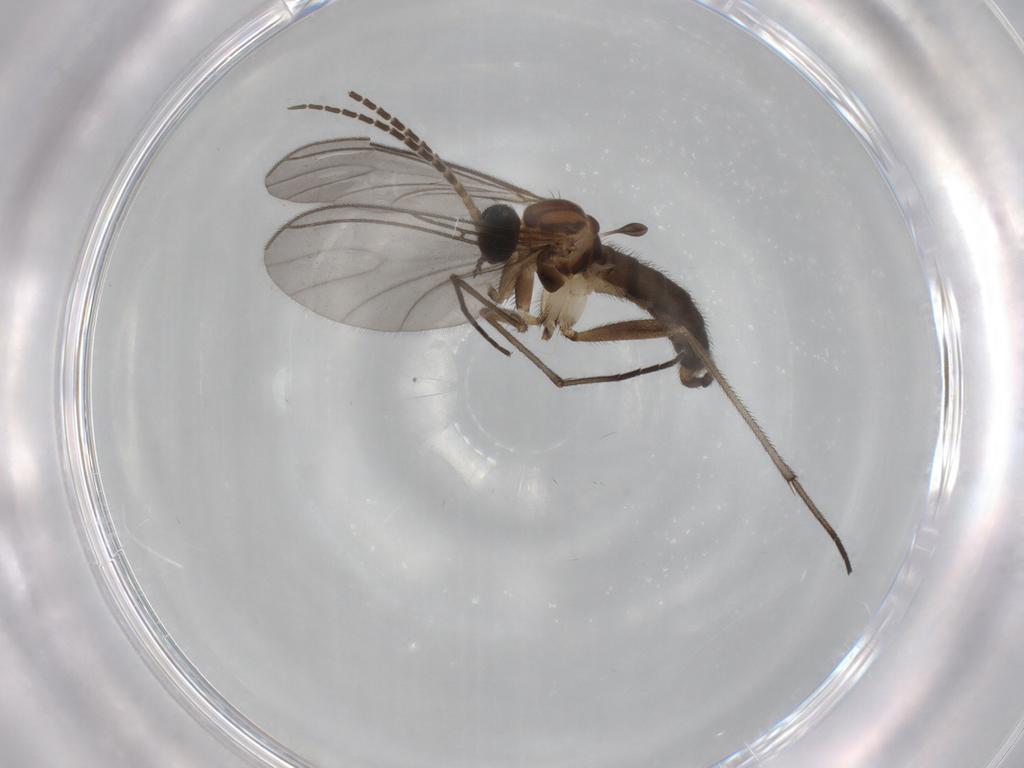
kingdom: Animalia
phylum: Arthropoda
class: Insecta
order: Diptera
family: Sciaridae
